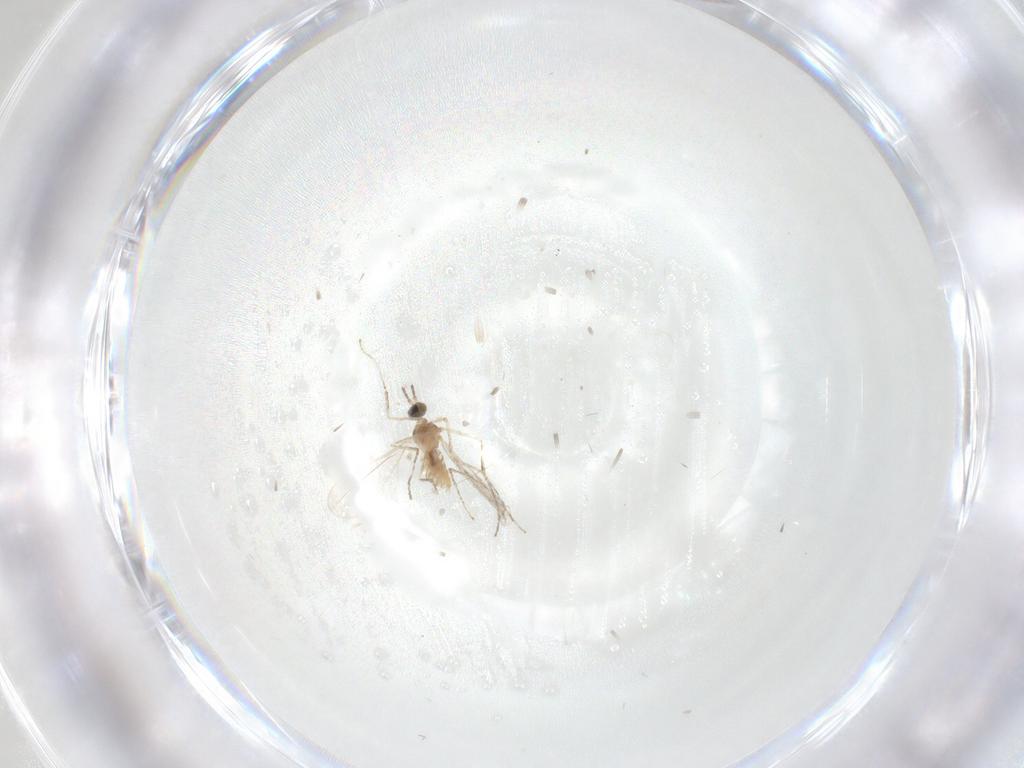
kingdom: Animalia
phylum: Arthropoda
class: Insecta
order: Diptera
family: Cecidomyiidae
